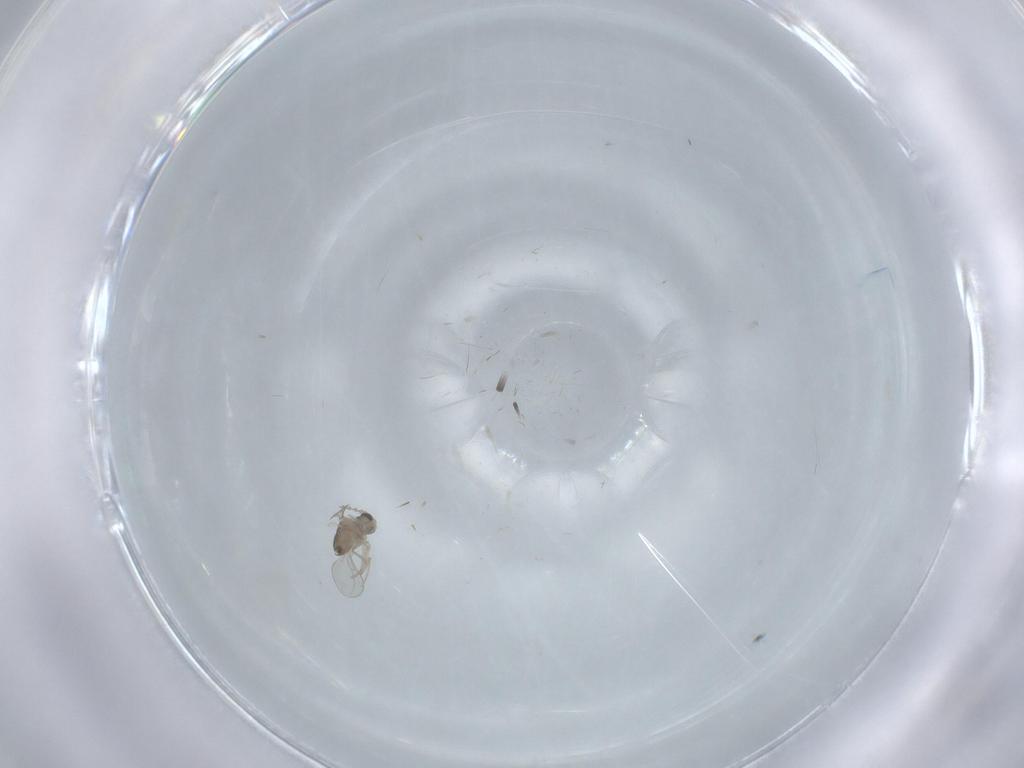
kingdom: Animalia
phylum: Arthropoda
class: Insecta
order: Diptera
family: Cecidomyiidae
